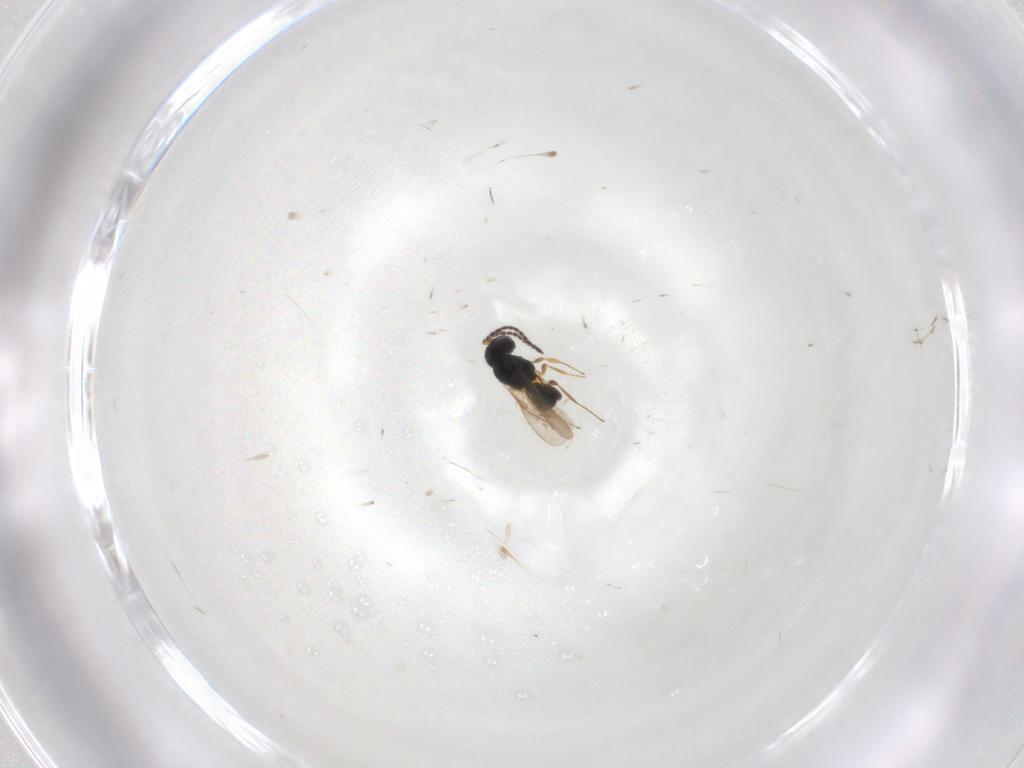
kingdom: Animalia
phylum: Arthropoda
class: Insecta
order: Hymenoptera
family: Scelionidae
